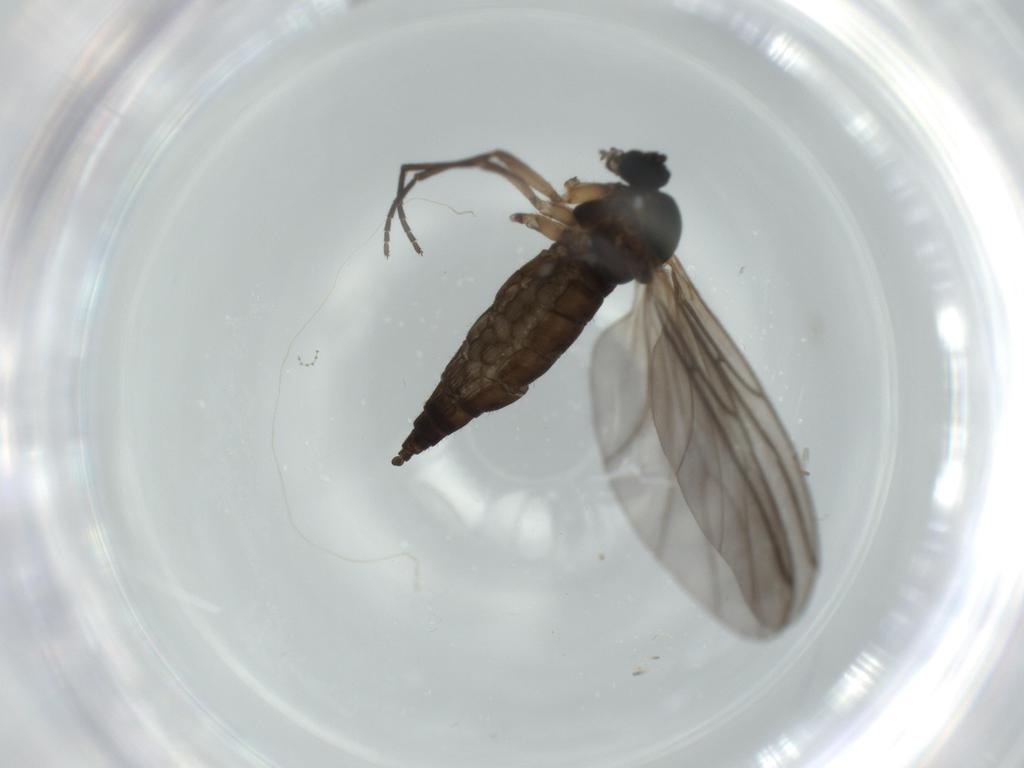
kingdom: Animalia
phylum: Arthropoda
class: Insecta
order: Diptera
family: Sciaridae
